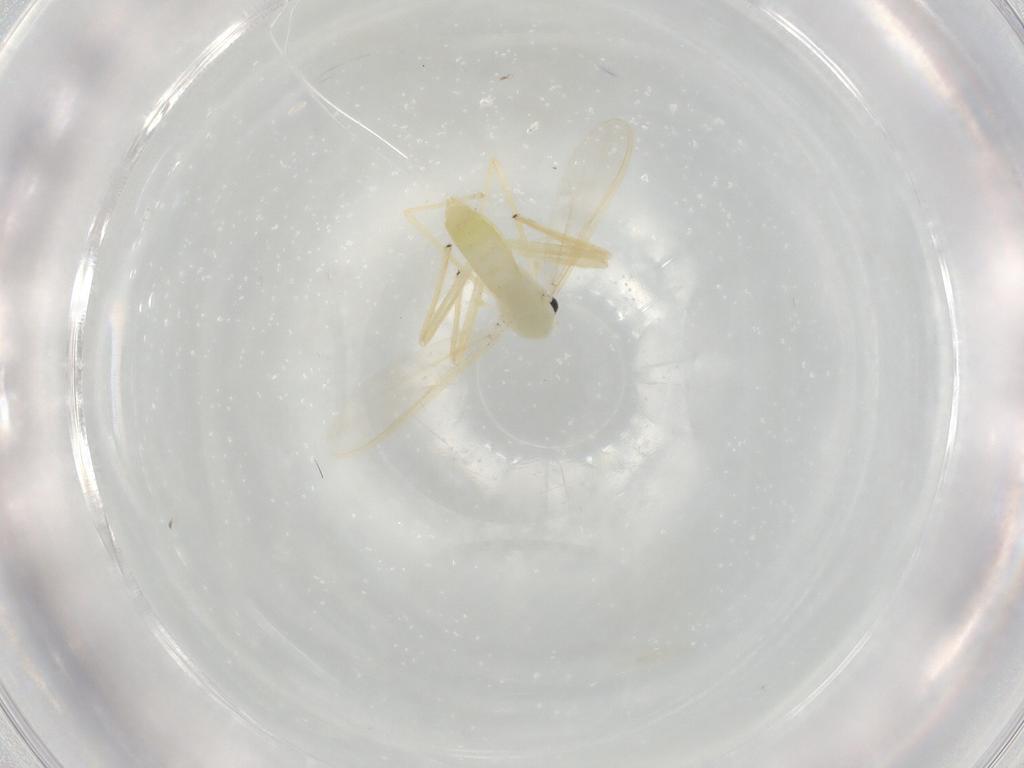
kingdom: Animalia
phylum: Arthropoda
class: Insecta
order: Diptera
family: Chironomidae
